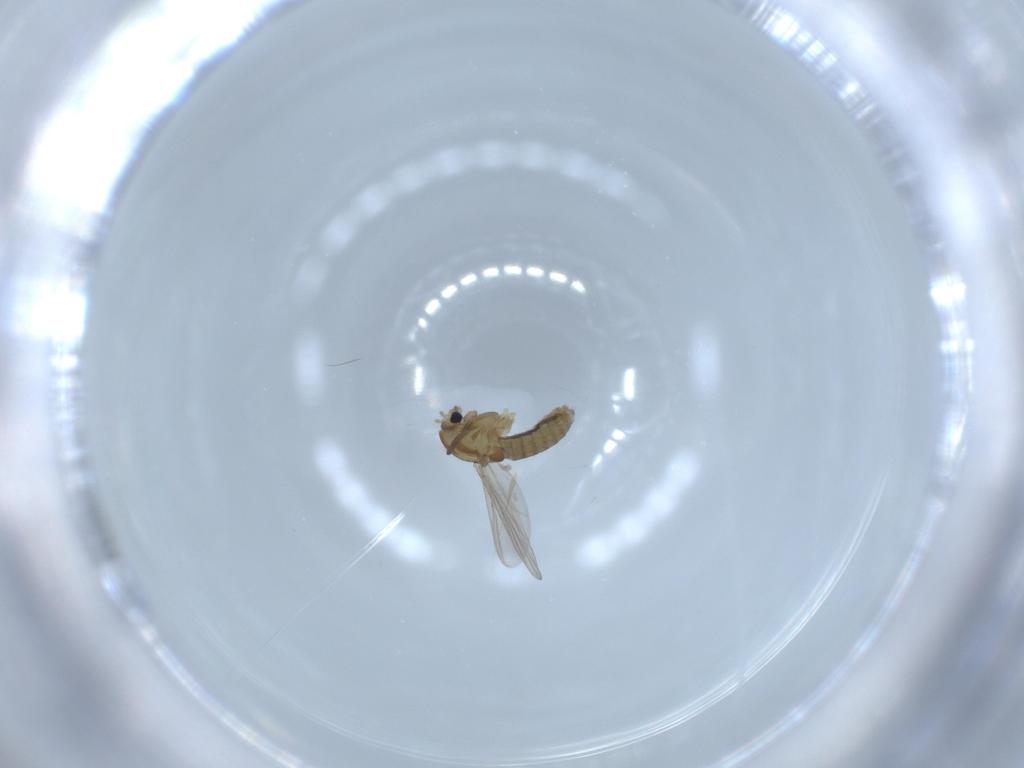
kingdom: Animalia
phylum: Arthropoda
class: Insecta
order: Diptera
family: Chironomidae
